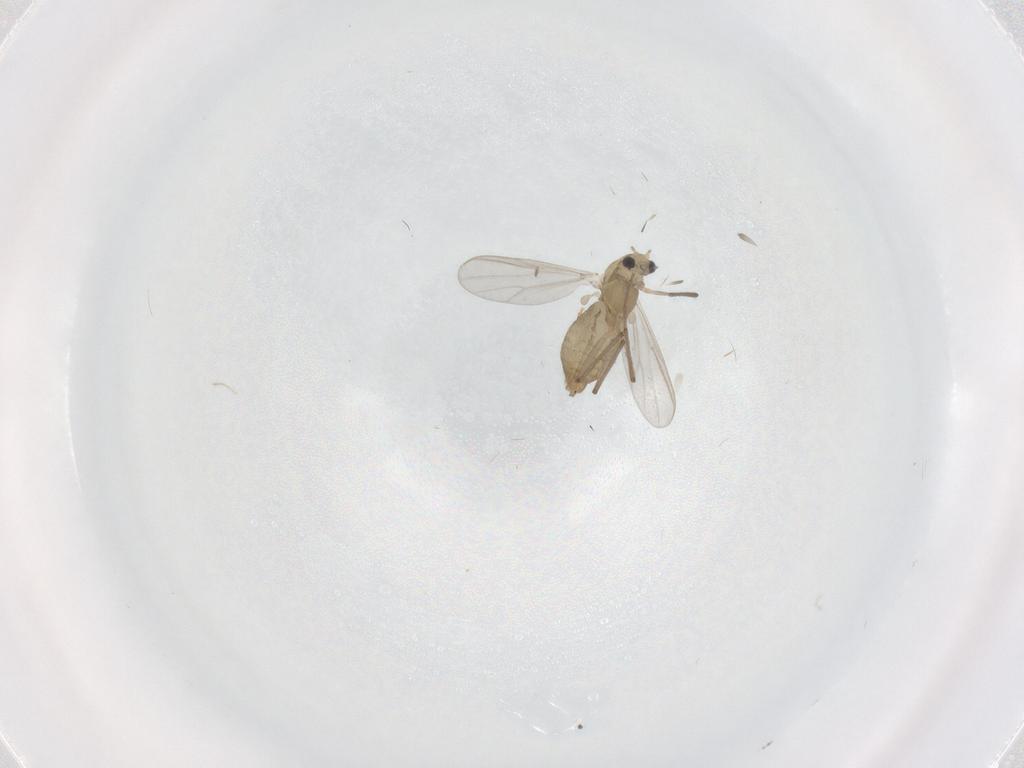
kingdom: Animalia
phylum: Arthropoda
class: Insecta
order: Diptera
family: Chironomidae
